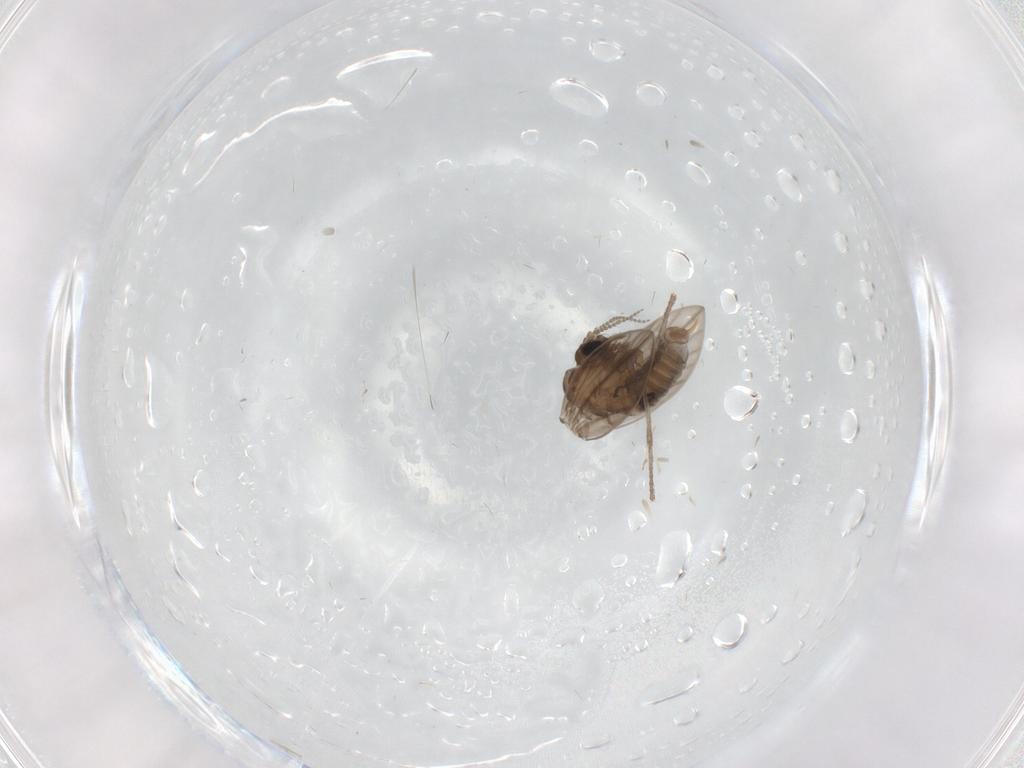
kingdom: Animalia
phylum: Arthropoda
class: Insecta
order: Diptera
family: Psychodidae
